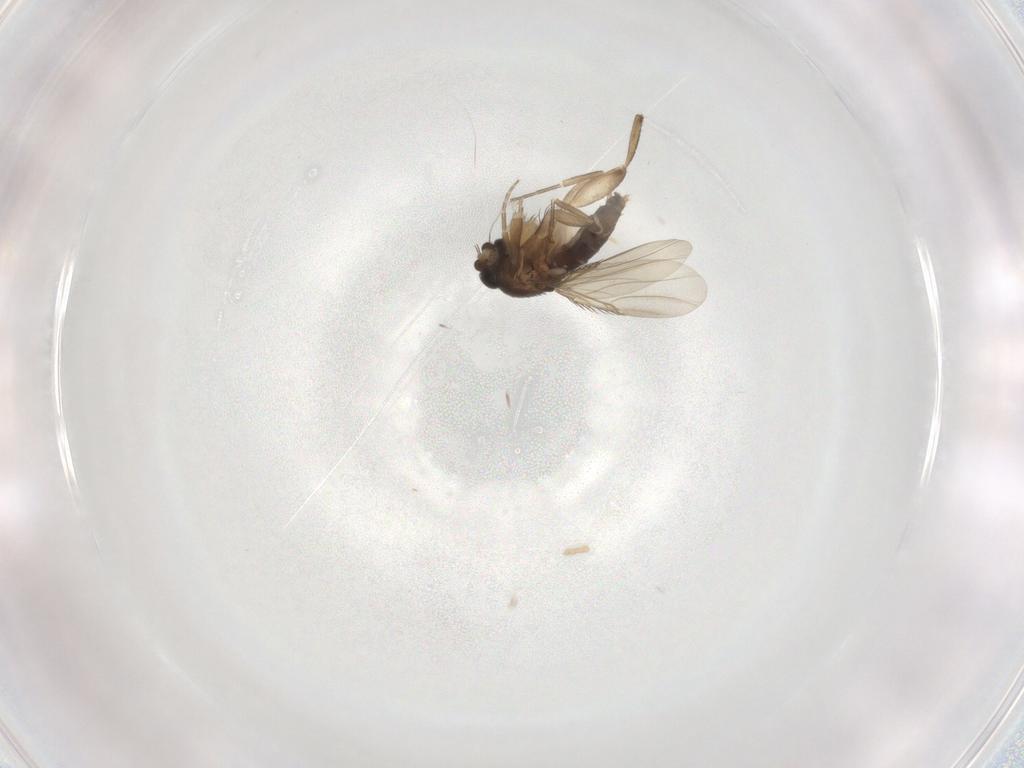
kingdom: Animalia
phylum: Arthropoda
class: Insecta
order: Diptera
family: Phoridae
